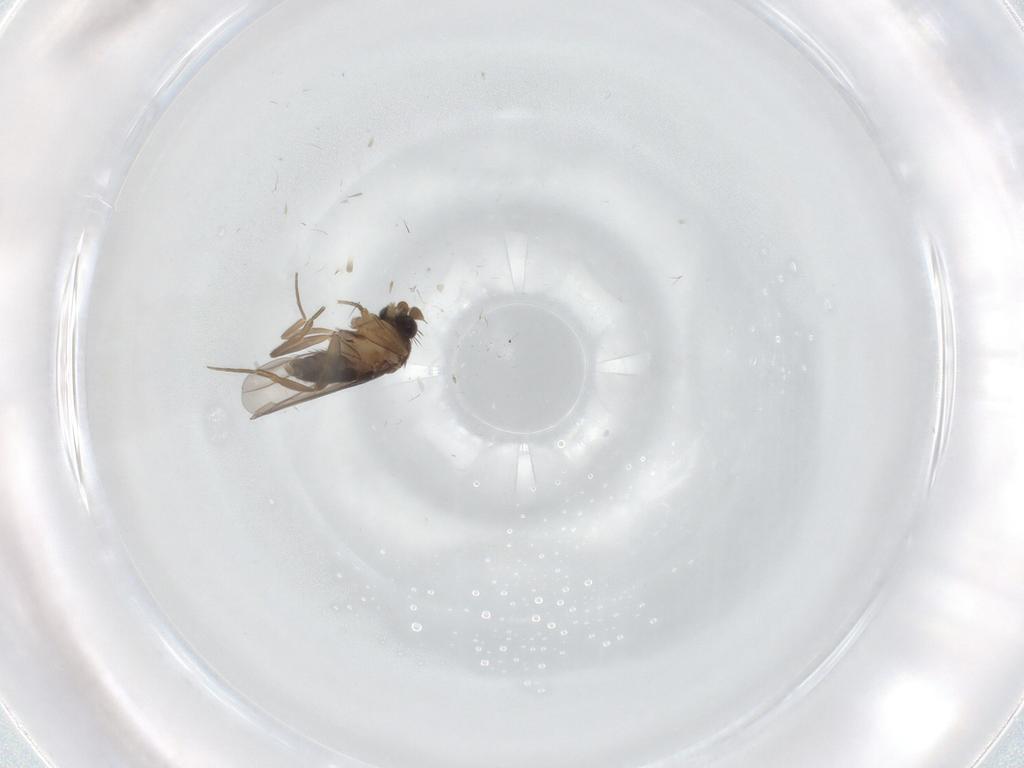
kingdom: Animalia
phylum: Arthropoda
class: Insecta
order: Diptera
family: Phoridae
